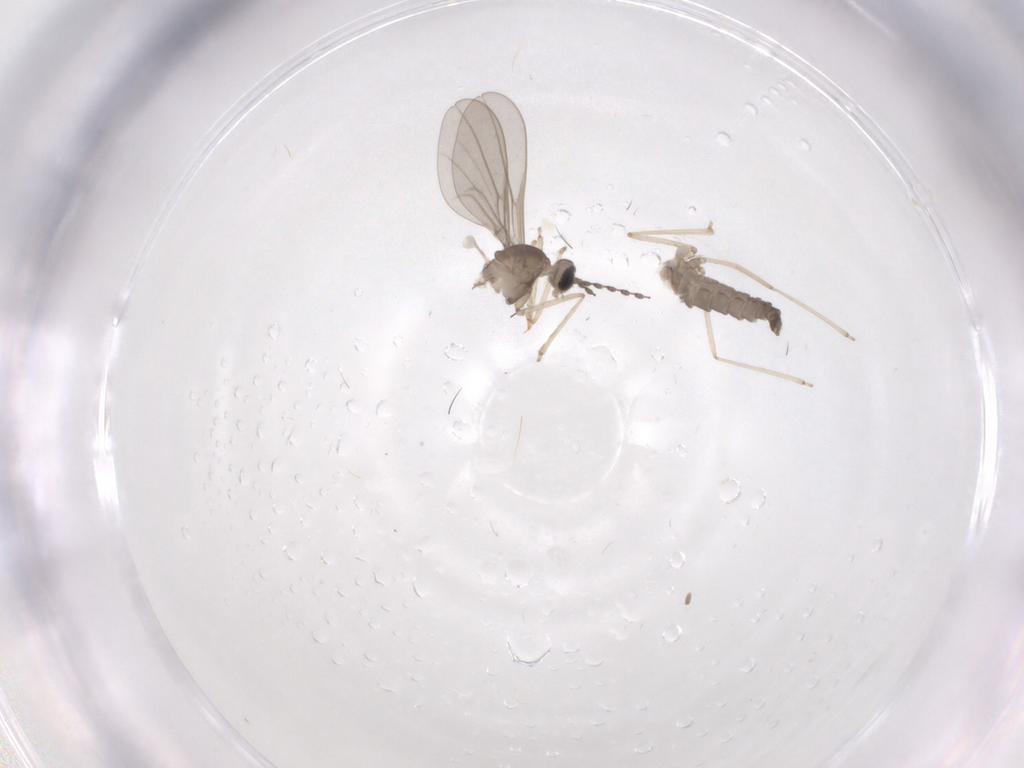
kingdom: Animalia
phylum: Arthropoda
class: Insecta
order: Diptera
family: Cecidomyiidae
